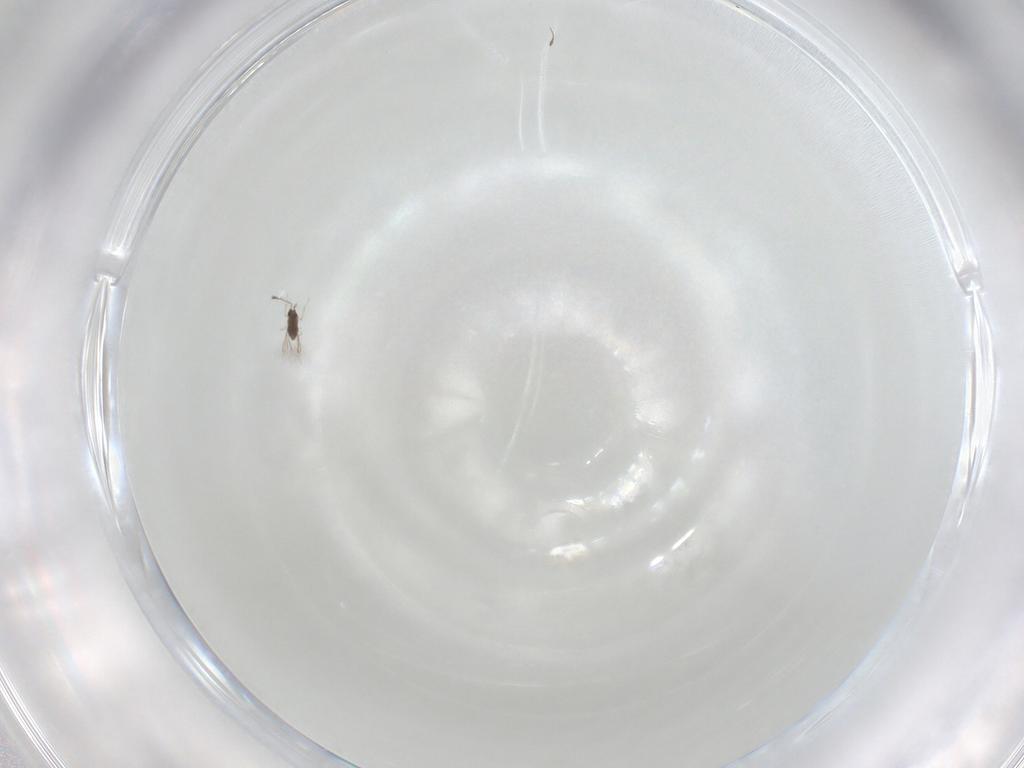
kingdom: Animalia
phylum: Arthropoda
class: Insecta
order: Hymenoptera
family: Mymaridae
